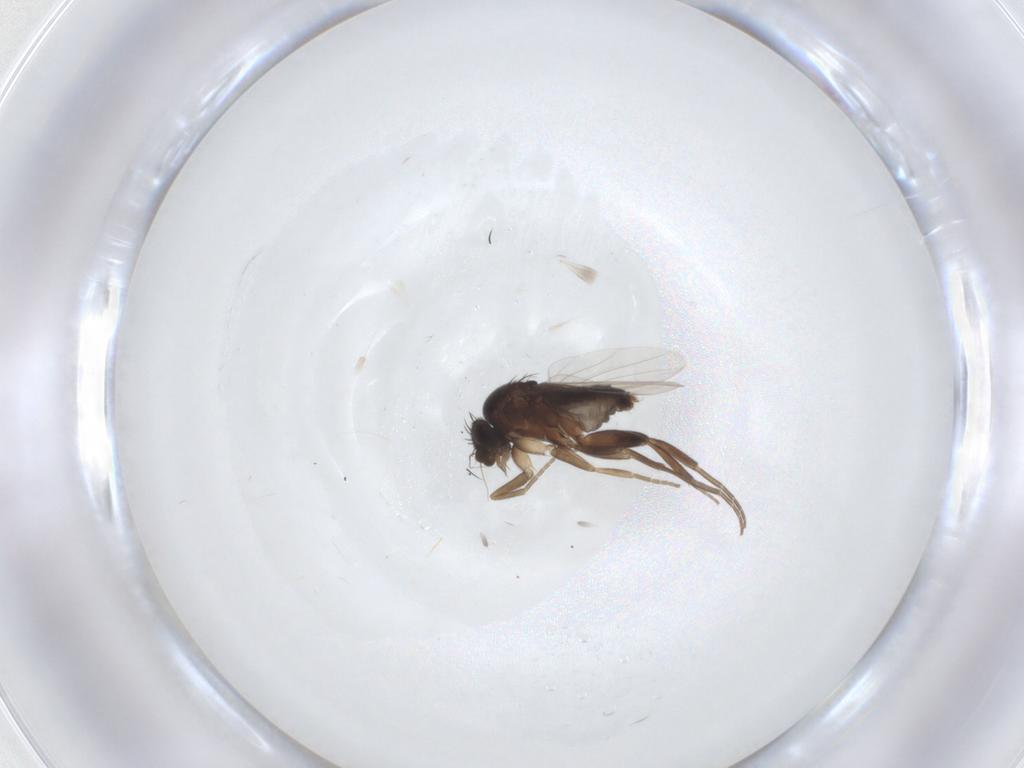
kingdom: Animalia
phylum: Arthropoda
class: Insecta
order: Diptera
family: Phoridae
